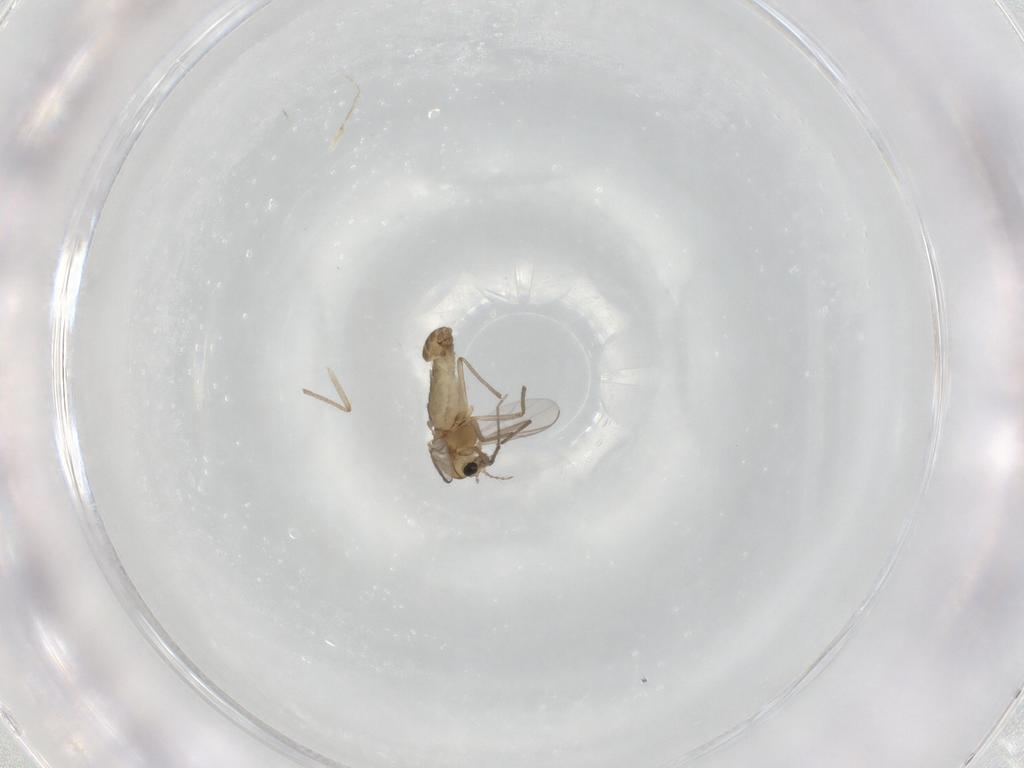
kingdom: Animalia
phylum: Arthropoda
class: Insecta
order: Diptera
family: Chironomidae
